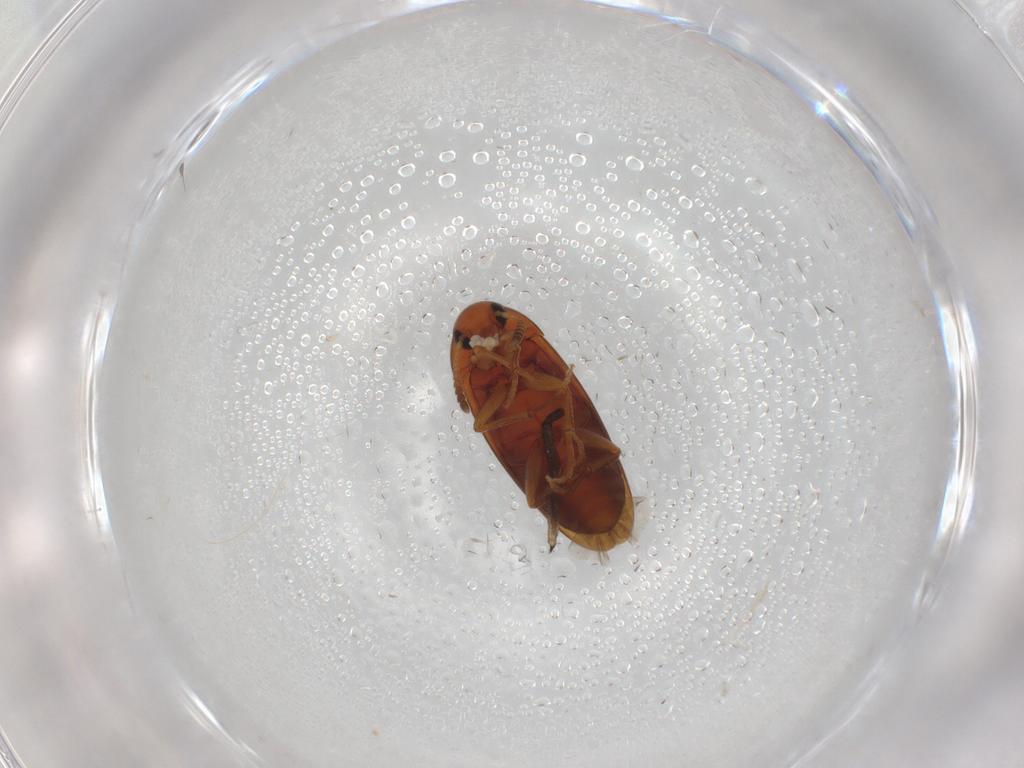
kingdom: Animalia
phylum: Arthropoda
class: Insecta
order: Coleoptera
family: Scraptiidae
